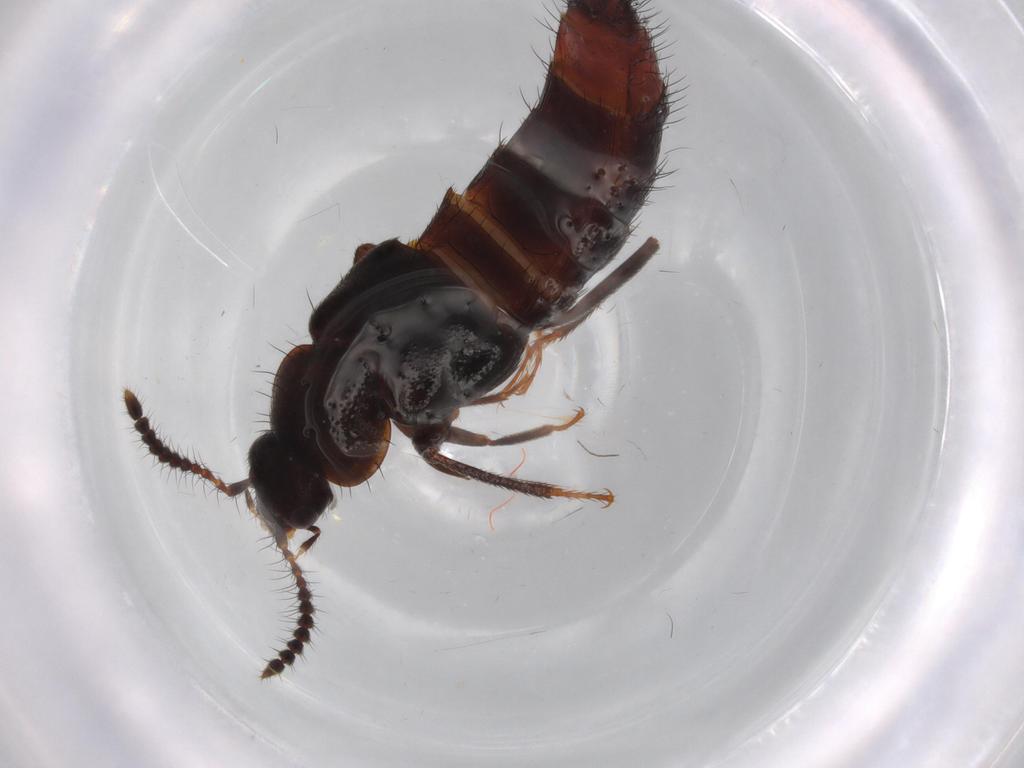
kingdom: Animalia
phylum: Arthropoda
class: Insecta
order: Coleoptera
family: Staphylinidae
